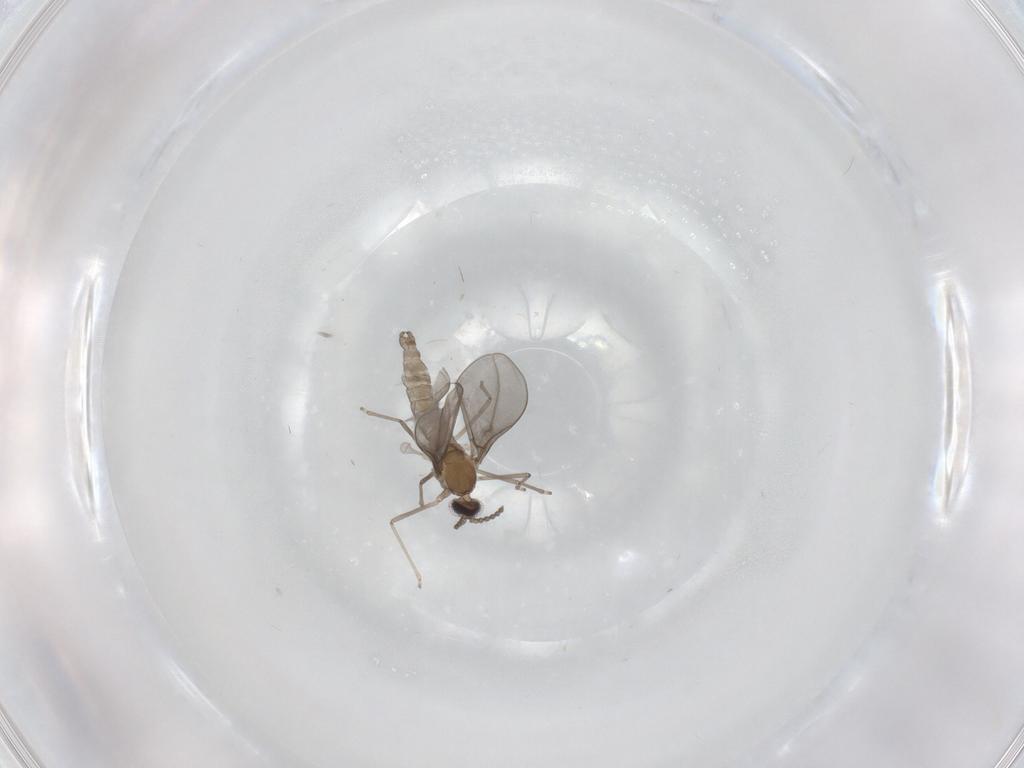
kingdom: Animalia
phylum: Arthropoda
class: Insecta
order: Diptera
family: Cecidomyiidae
